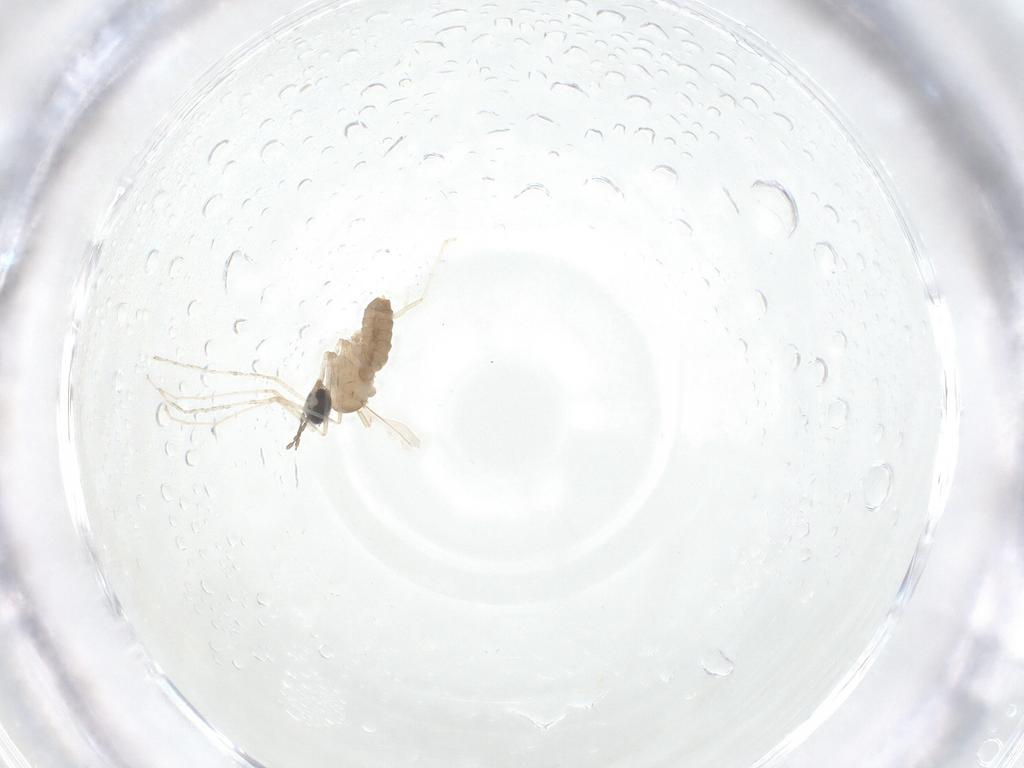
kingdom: Animalia
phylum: Arthropoda
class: Insecta
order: Diptera
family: Cecidomyiidae
